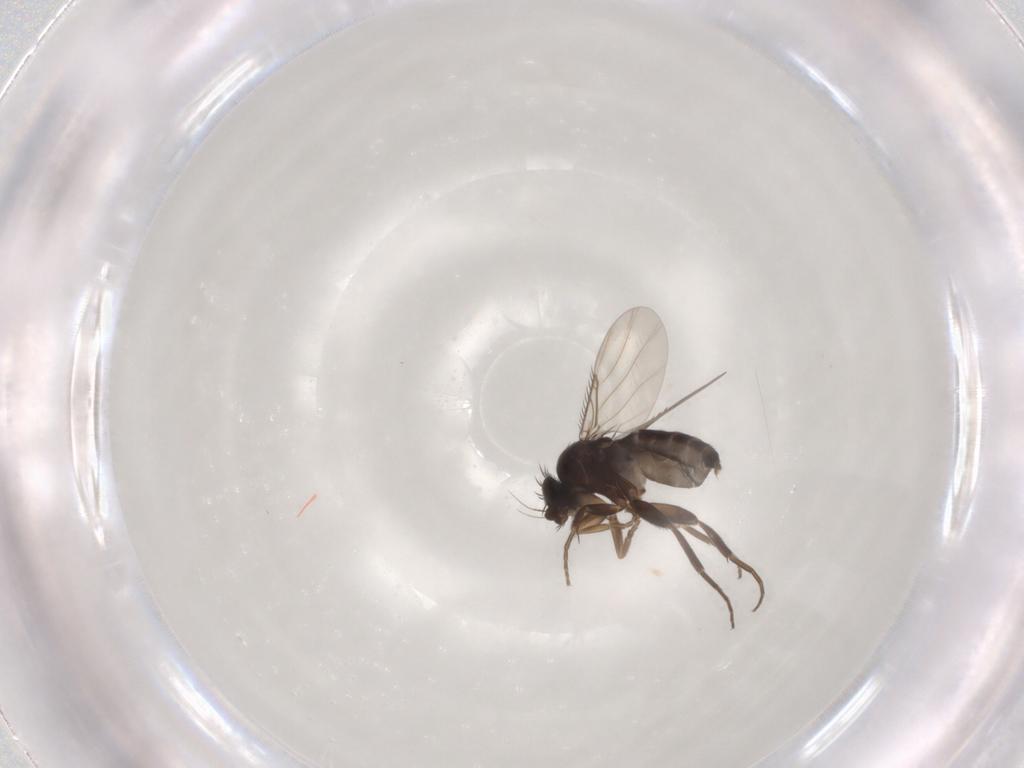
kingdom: Animalia
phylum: Arthropoda
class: Insecta
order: Diptera
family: Phoridae
